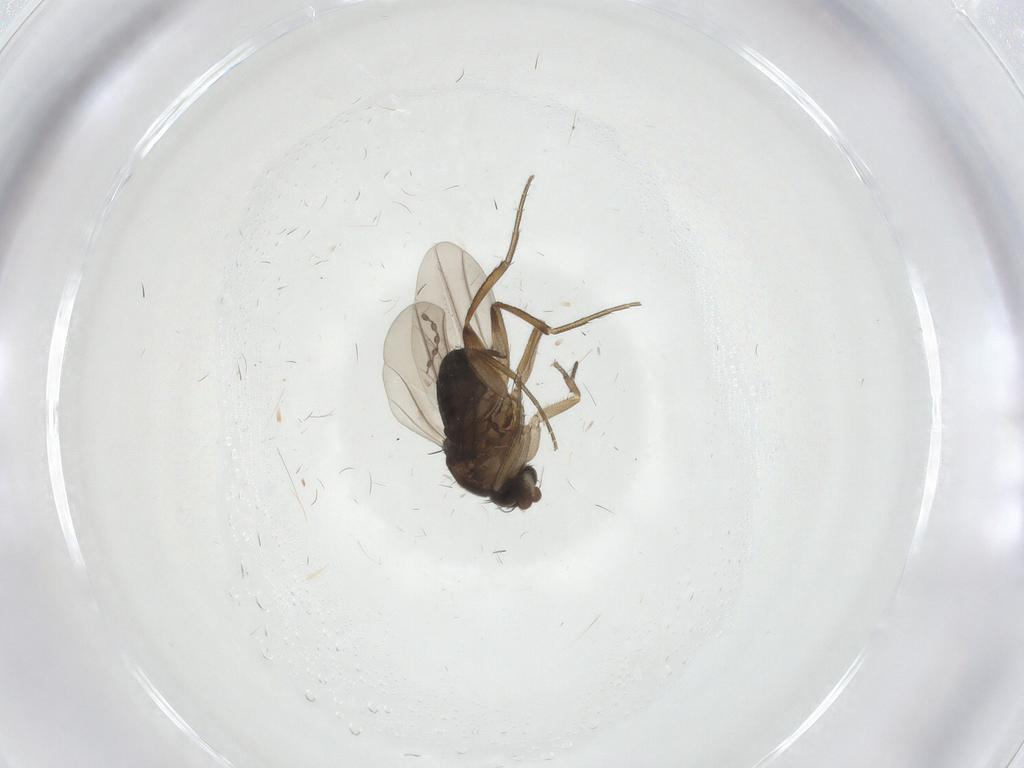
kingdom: Animalia
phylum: Arthropoda
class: Insecta
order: Diptera
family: Phoridae
